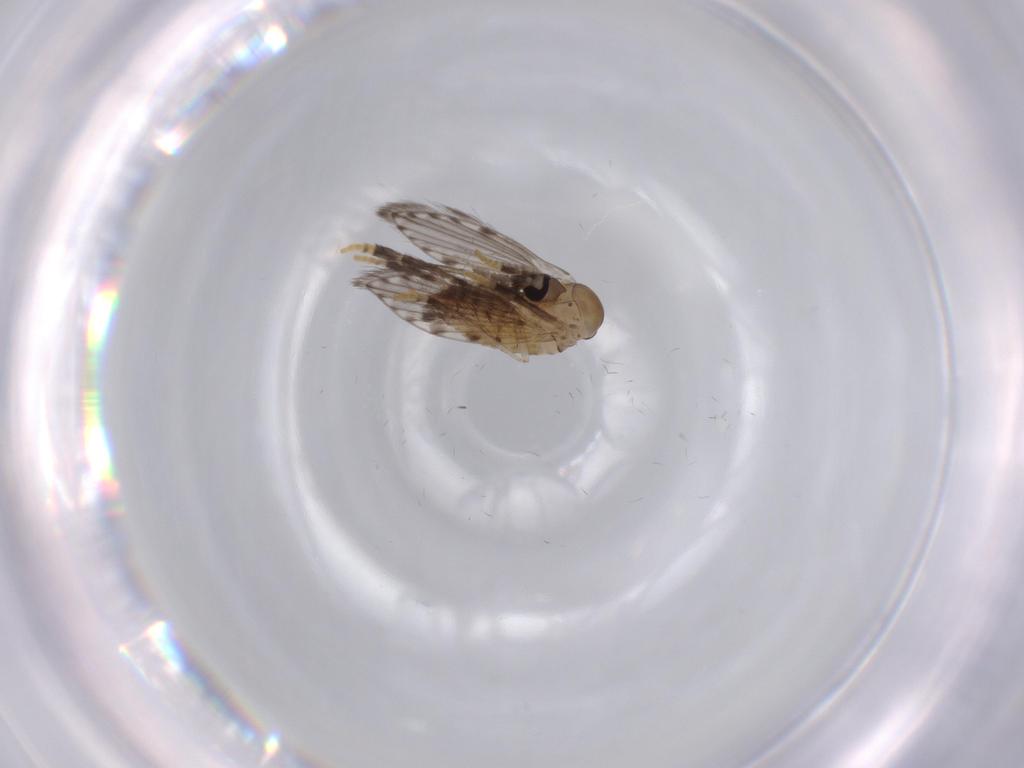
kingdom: Animalia
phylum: Arthropoda
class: Insecta
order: Diptera
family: Psychodidae
